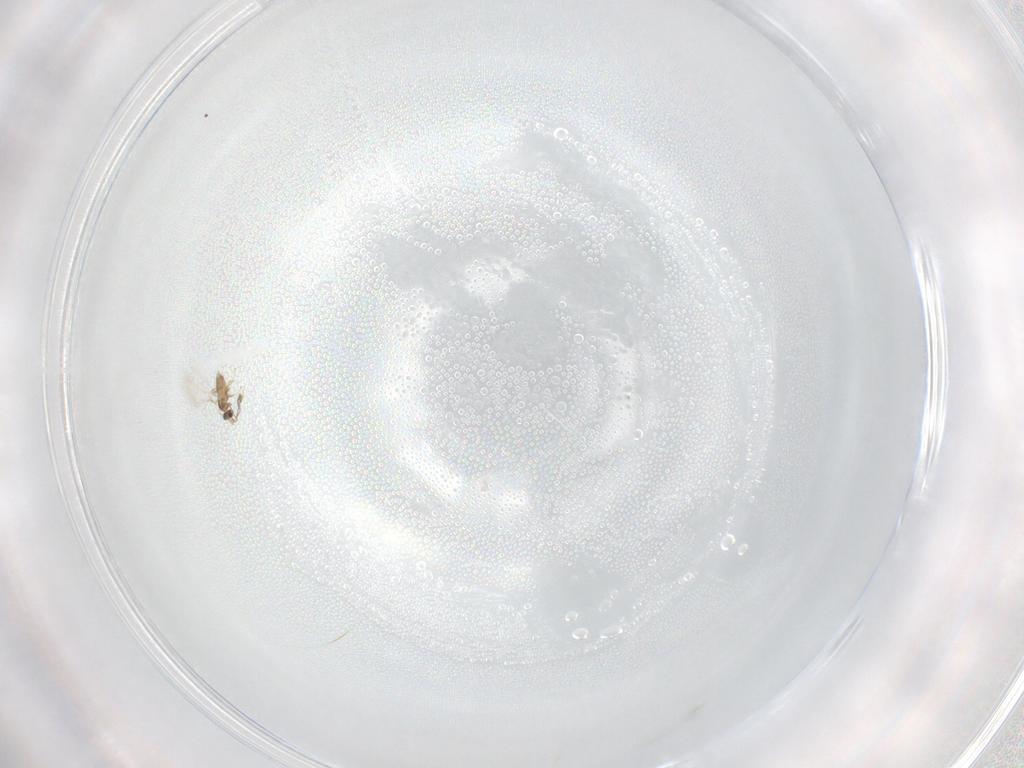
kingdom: Animalia
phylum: Arthropoda
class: Insecta
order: Hymenoptera
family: Mymaridae
